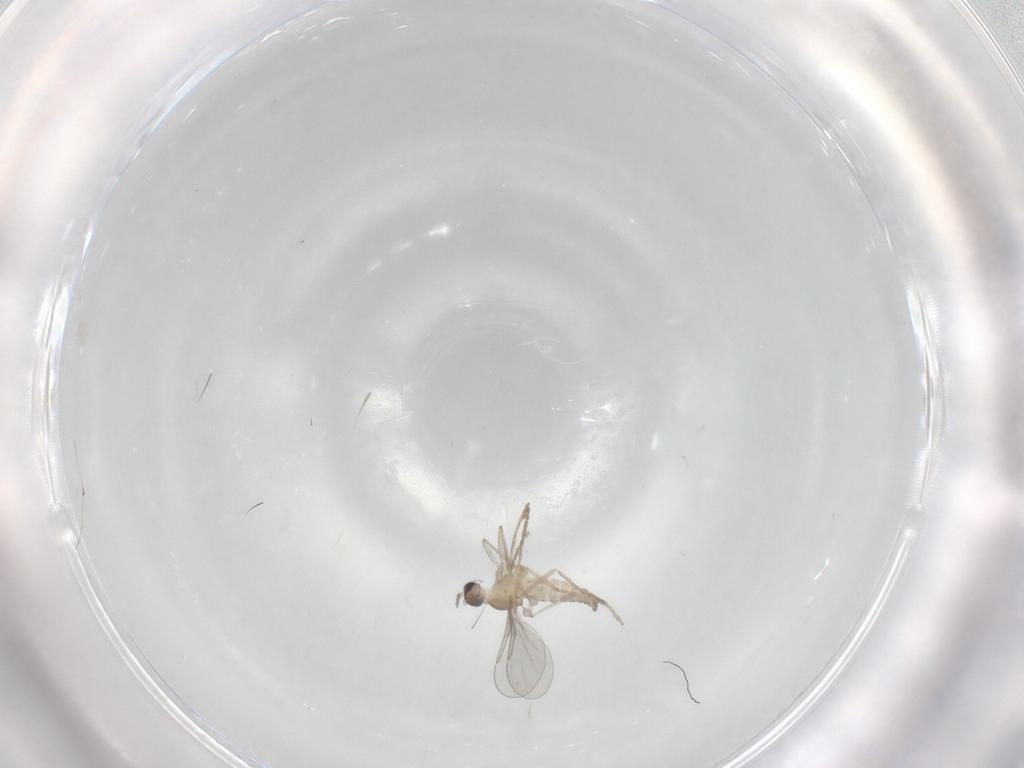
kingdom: Animalia
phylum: Arthropoda
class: Insecta
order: Diptera
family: Cecidomyiidae
